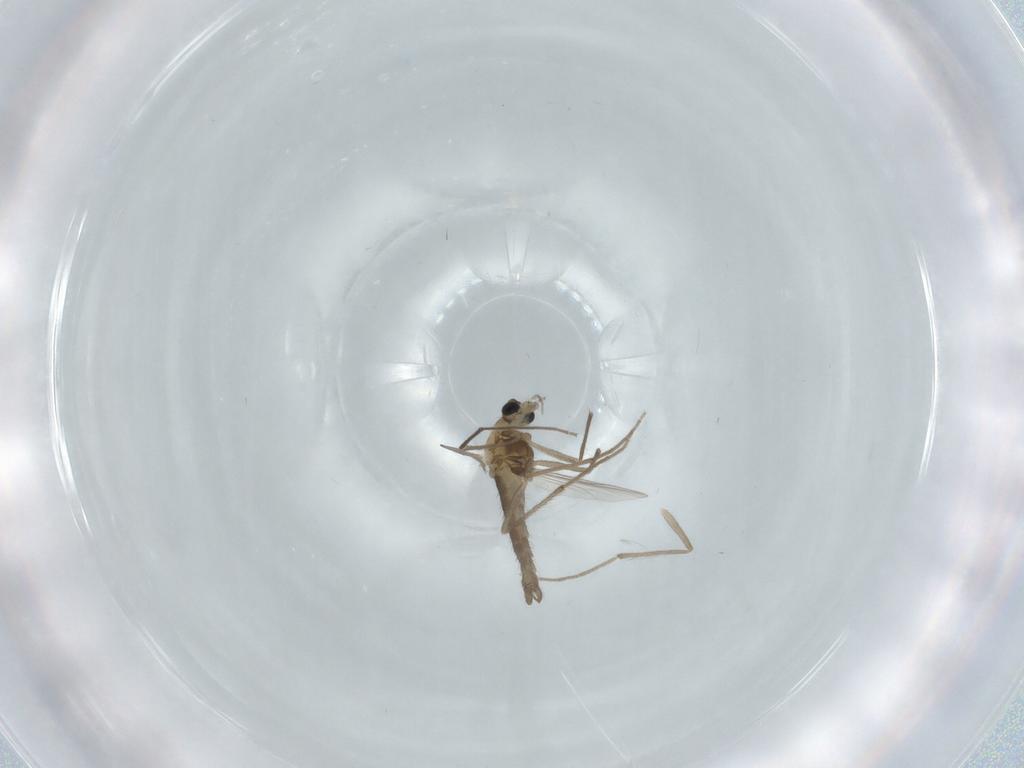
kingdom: Animalia
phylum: Arthropoda
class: Insecta
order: Diptera
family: Chironomidae
